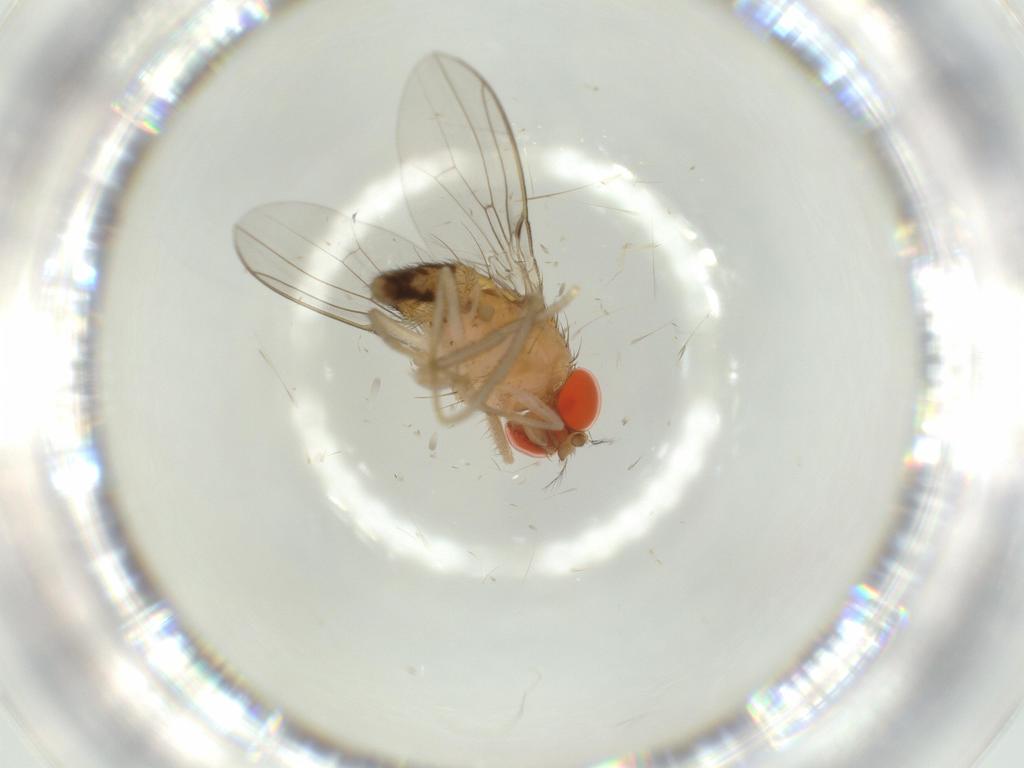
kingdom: Animalia
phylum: Arthropoda
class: Insecta
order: Diptera
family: Drosophilidae
